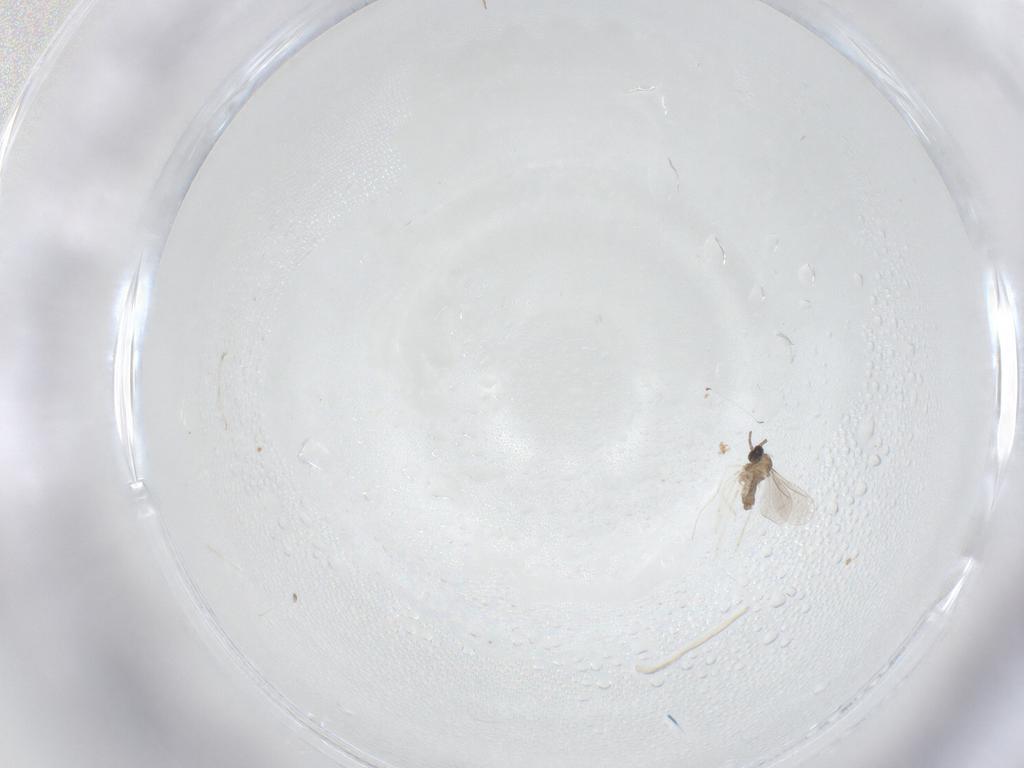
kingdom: Animalia
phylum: Arthropoda
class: Insecta
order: Diptera
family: Cecidomyiidae
